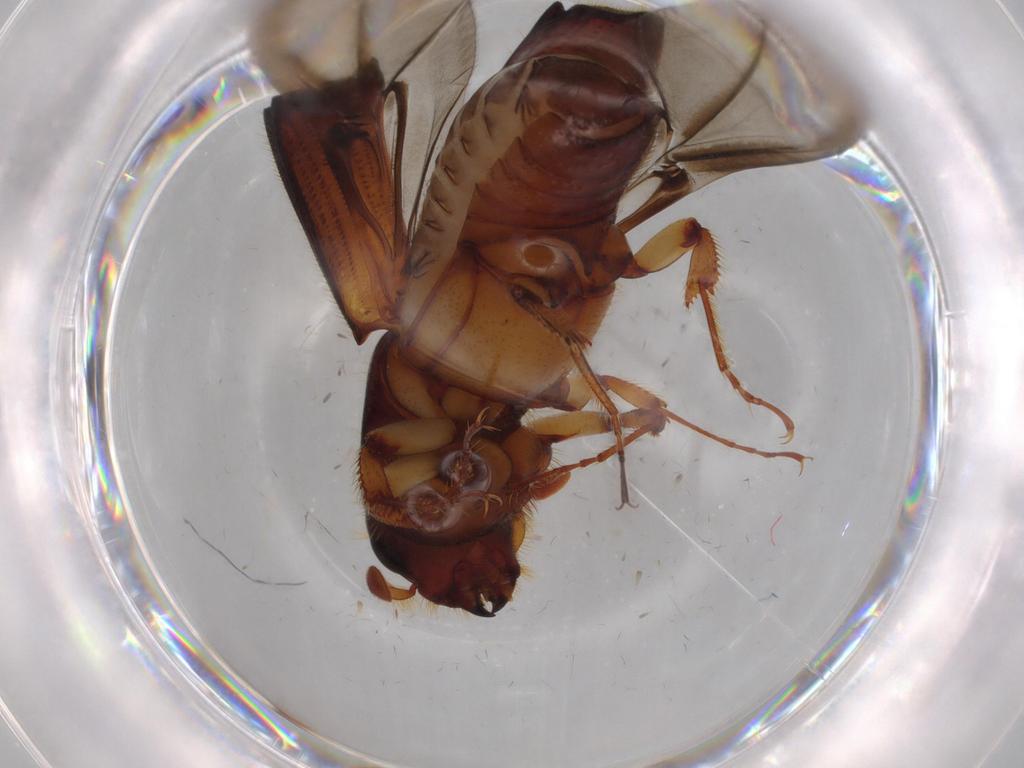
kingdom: Animalia
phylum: Arthropoda
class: Insecta
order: Coleoptera
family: Curculionidae
